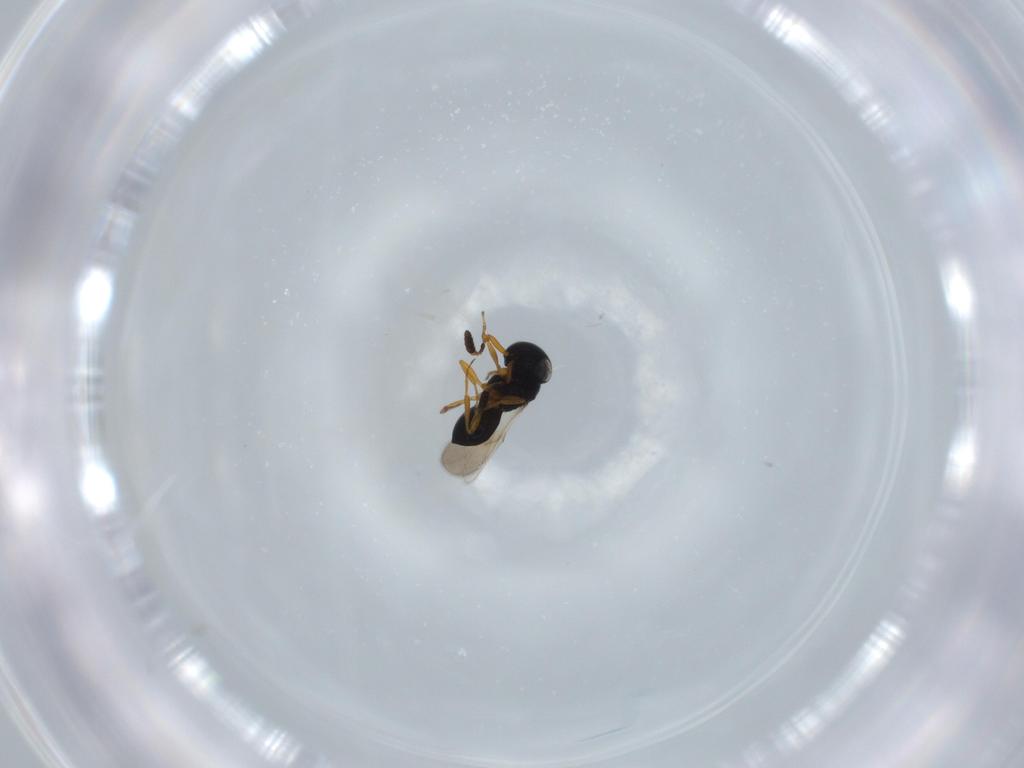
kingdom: Animalia
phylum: Arthropoda
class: Insecta
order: Hymenoptera
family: Scelionidae
